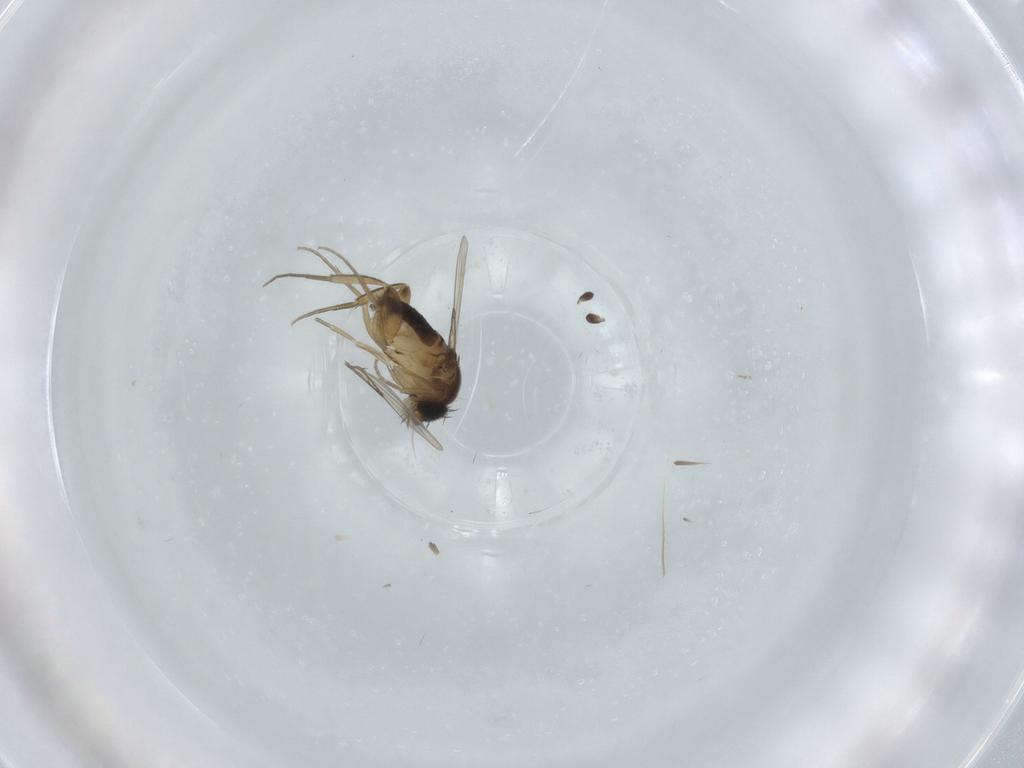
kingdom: Animalia
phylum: Arthropoda
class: Insecta
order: Diptera
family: Phoridae
